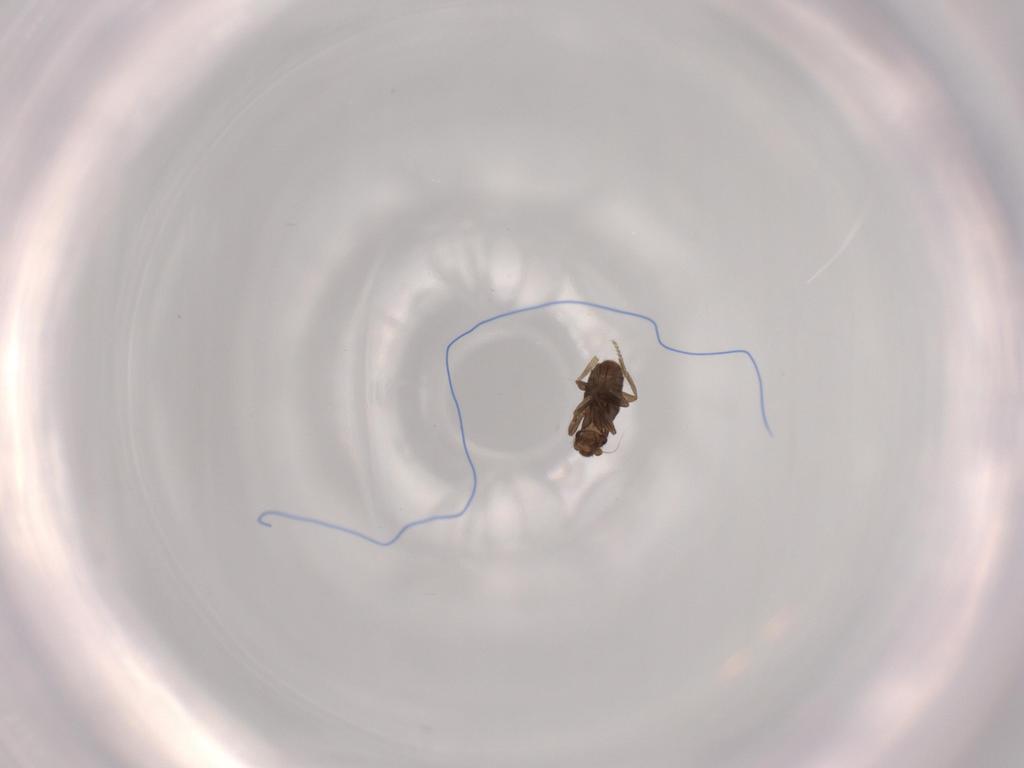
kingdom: Animalia
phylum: Arthropoda
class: Insecta
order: Diptera
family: Phoridae
